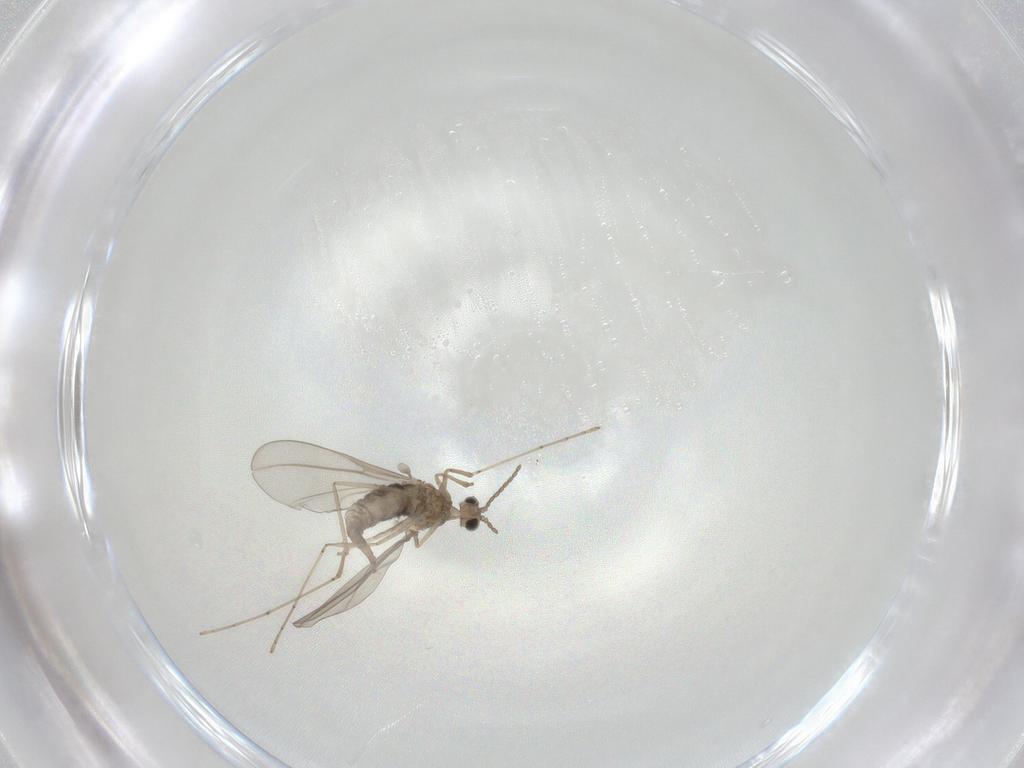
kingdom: Animalia
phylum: Arthropoda
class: Insecta
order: Diptera
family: Cecidomyiidae
